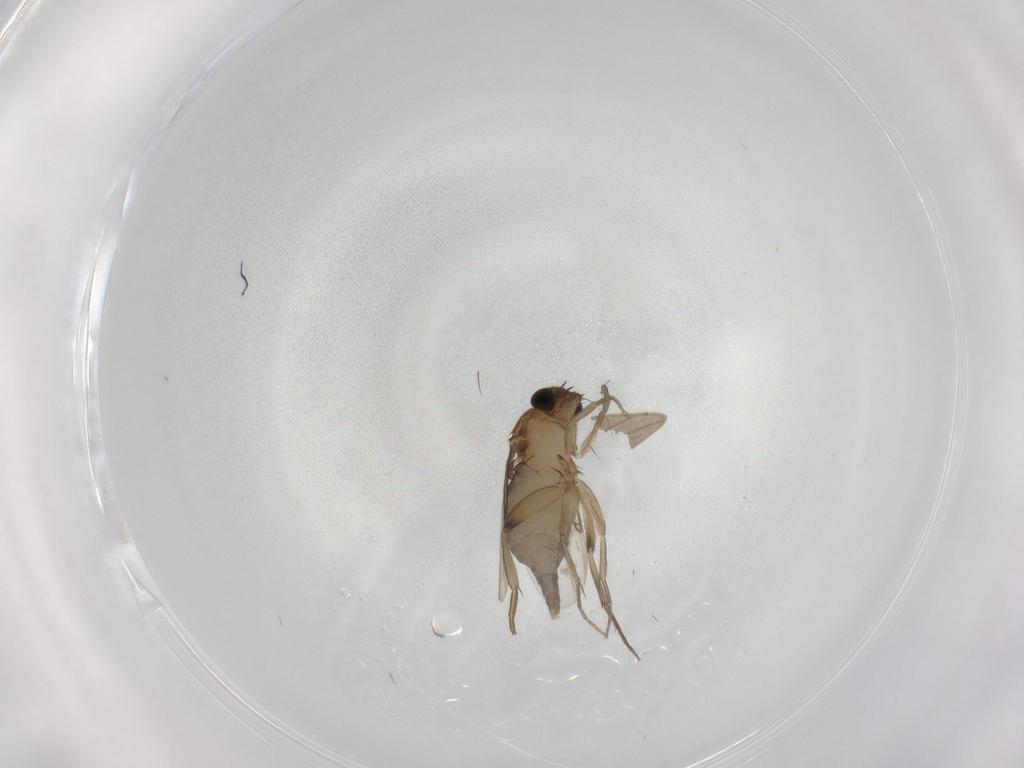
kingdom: Animalia
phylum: Arthropoda
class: Insecta
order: Diptera
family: Phoridae
